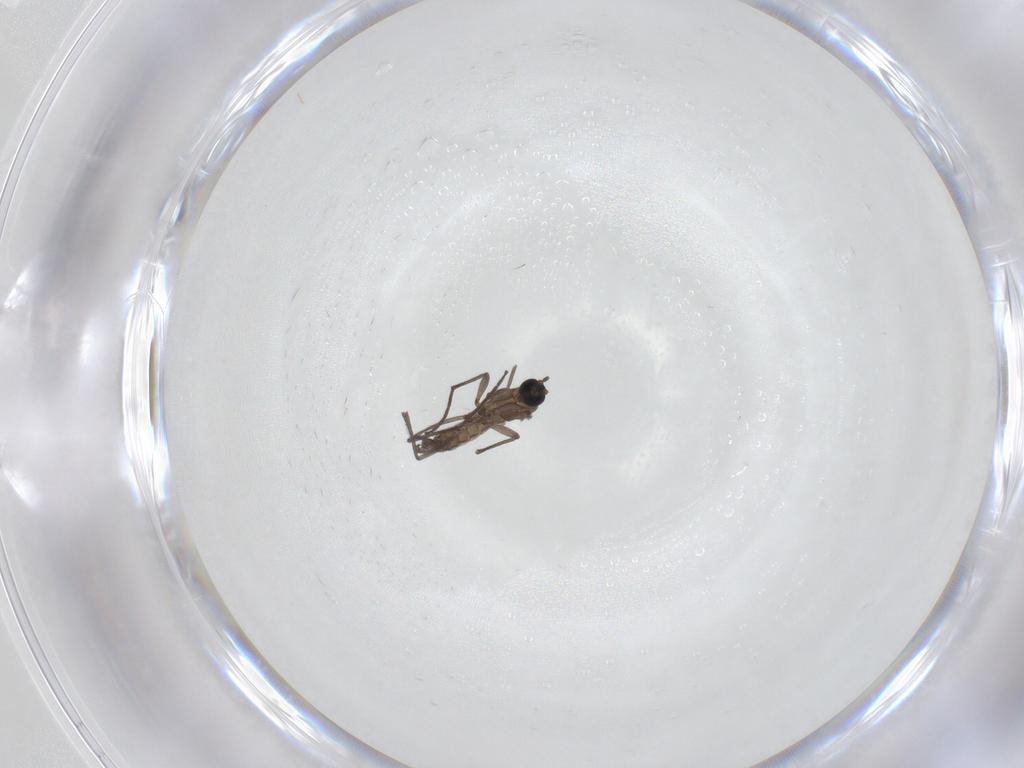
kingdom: Animalia
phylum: Arthropoda
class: Insecta
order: Diptera
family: Sciaridae
